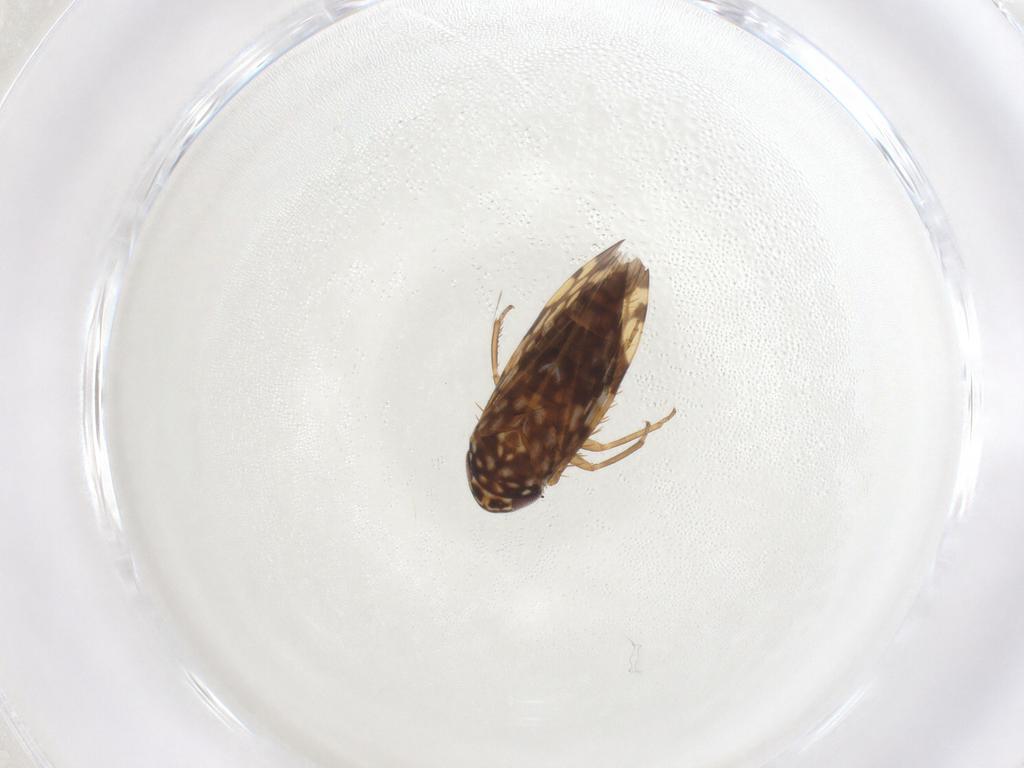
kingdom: Animalia
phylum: Arthropoda
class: Insecta
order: Hemiptera
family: Cicadellidae
